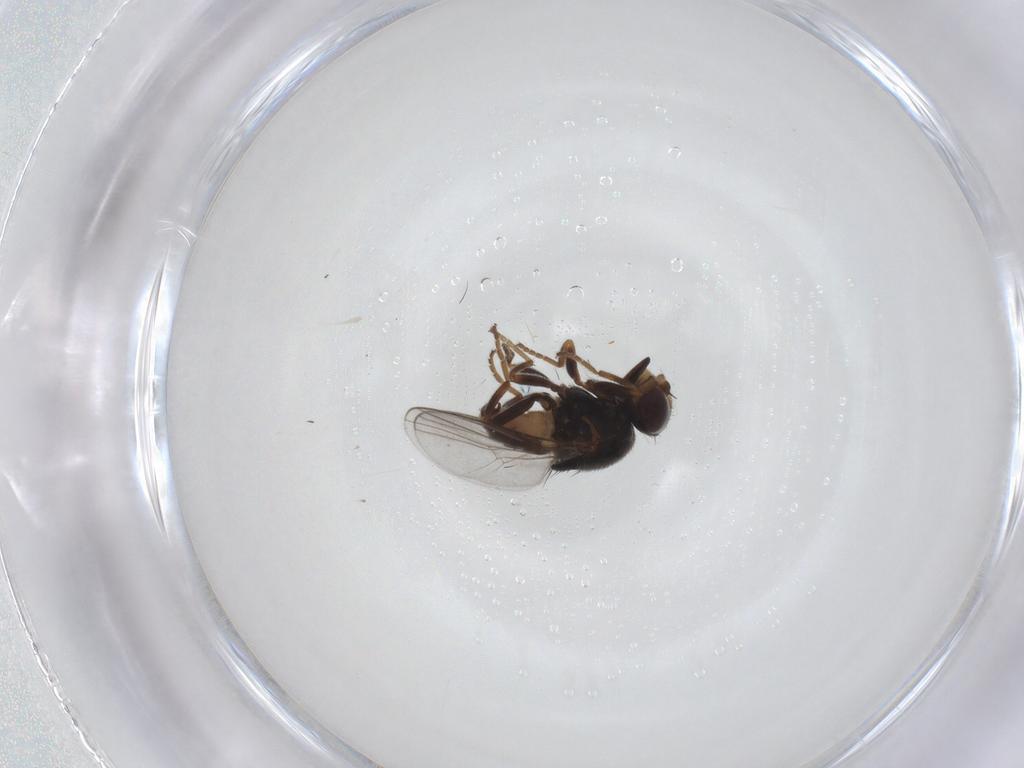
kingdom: Animalia
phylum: Arthropoda
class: Insecta
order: Diptera
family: Chloropidae
